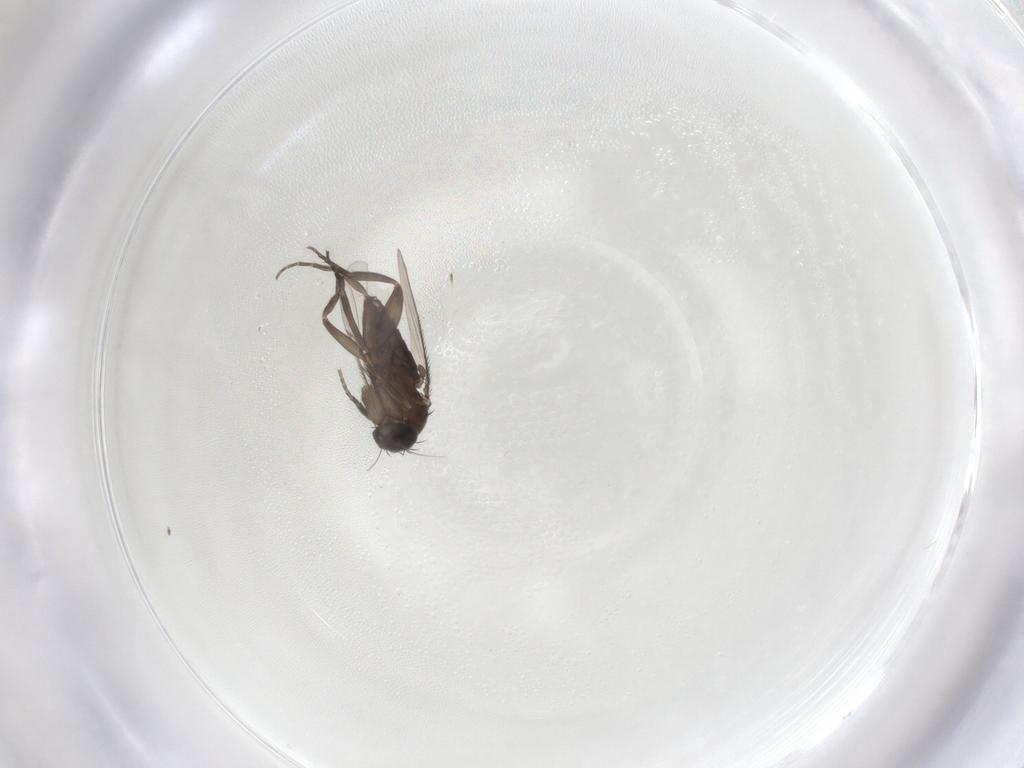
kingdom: Animalia
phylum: Arthropoda
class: Insecta
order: Diptera
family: Phoridae
